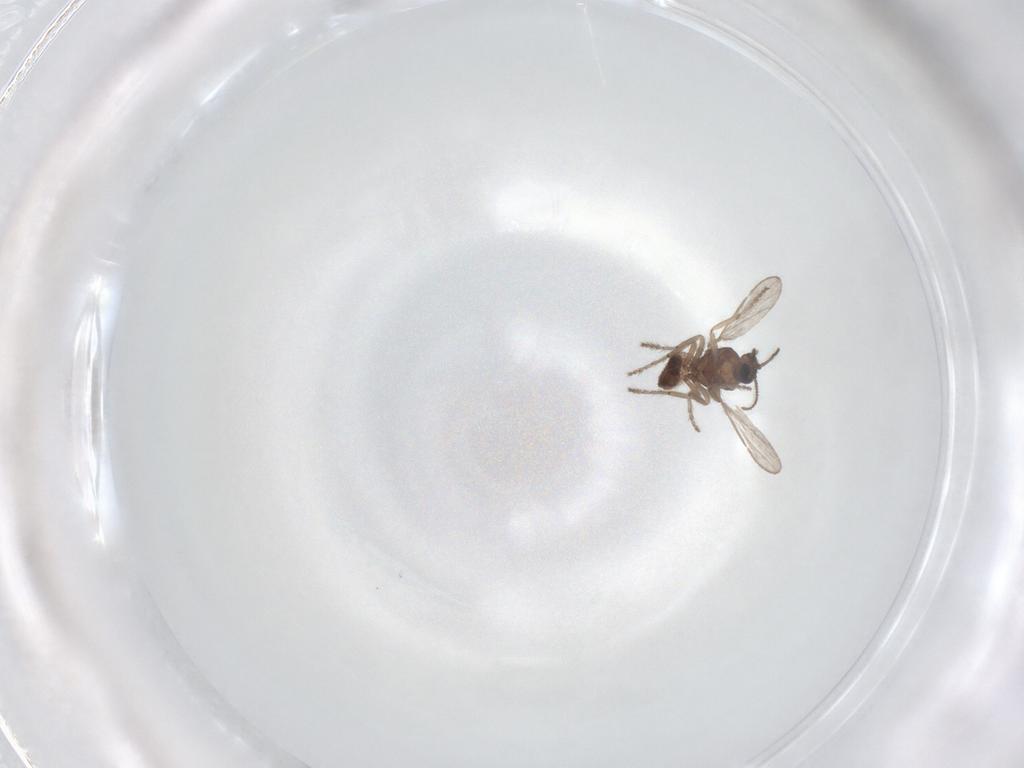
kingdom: Animalia
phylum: Arthropoda
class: Insecta
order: Diptera
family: Ceratopogonidae
